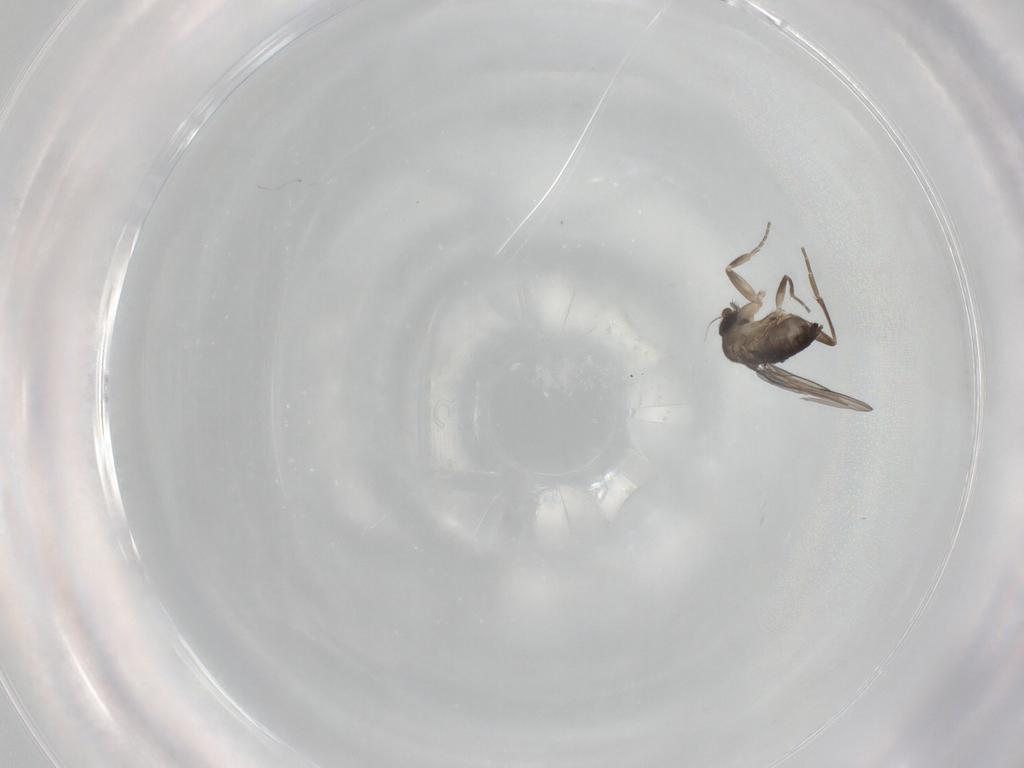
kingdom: Animalia
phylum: Arthropoda
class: Insecta
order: Diptera
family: Phoridae
